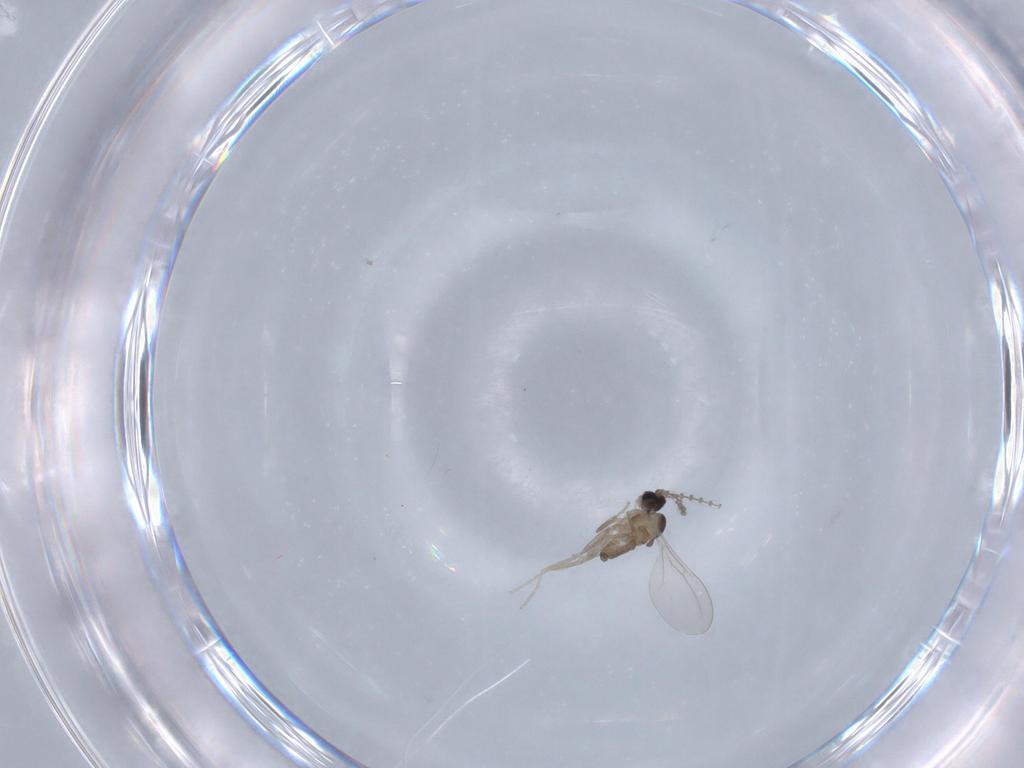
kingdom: Animalia
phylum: Arthropoda
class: Insecta
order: Diptera
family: Cecidomyiidae
